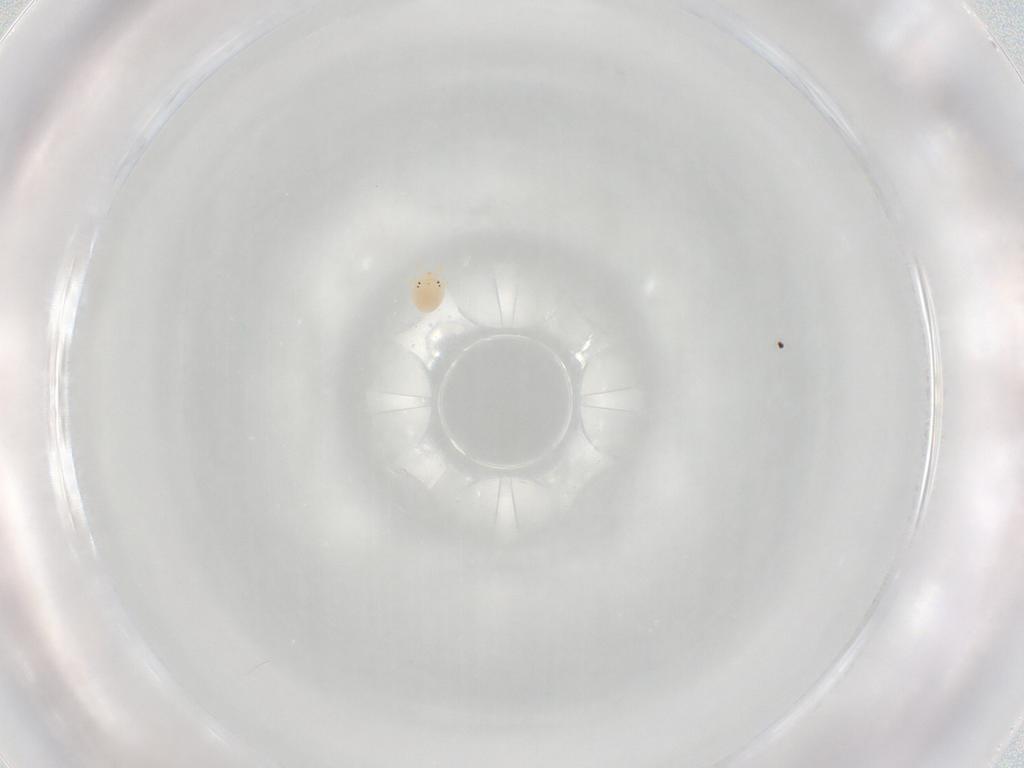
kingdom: Animalia
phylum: Arthropoda
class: Arachnida
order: Trombidiformes
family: Hydryphantidae
